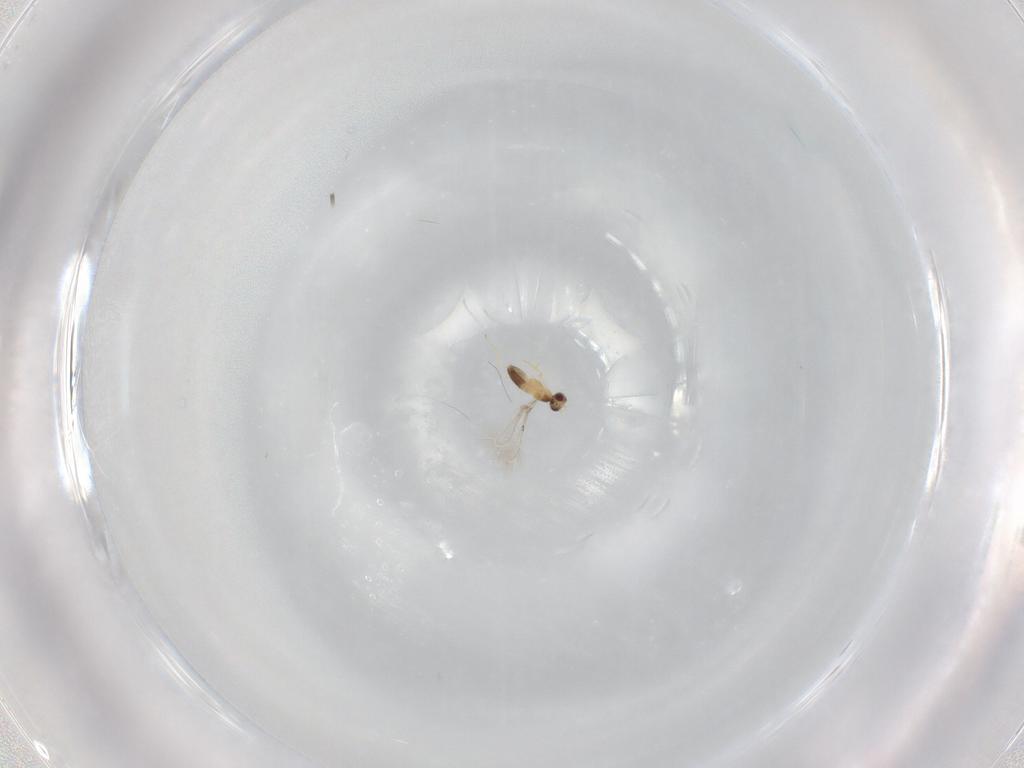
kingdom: Animalia
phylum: Arthropoda
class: Insecta
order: Hymenoptera
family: Mymaridae
